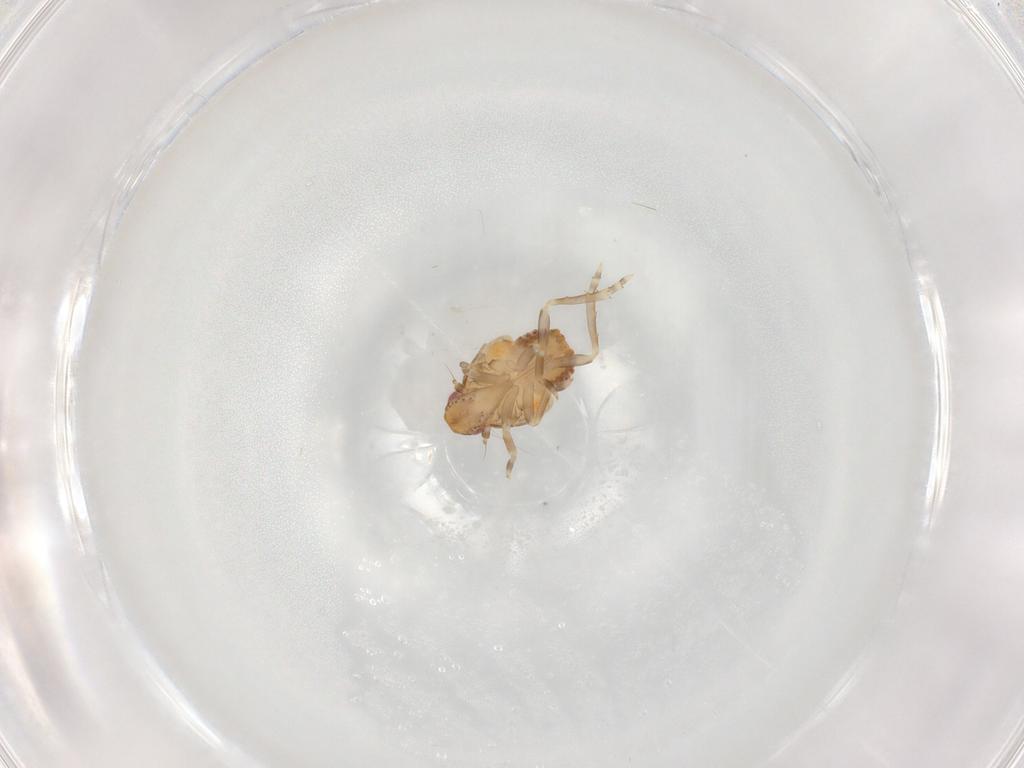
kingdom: Animalia
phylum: Arthropoda
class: Insecta
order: Hemiptera
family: Flatidae
